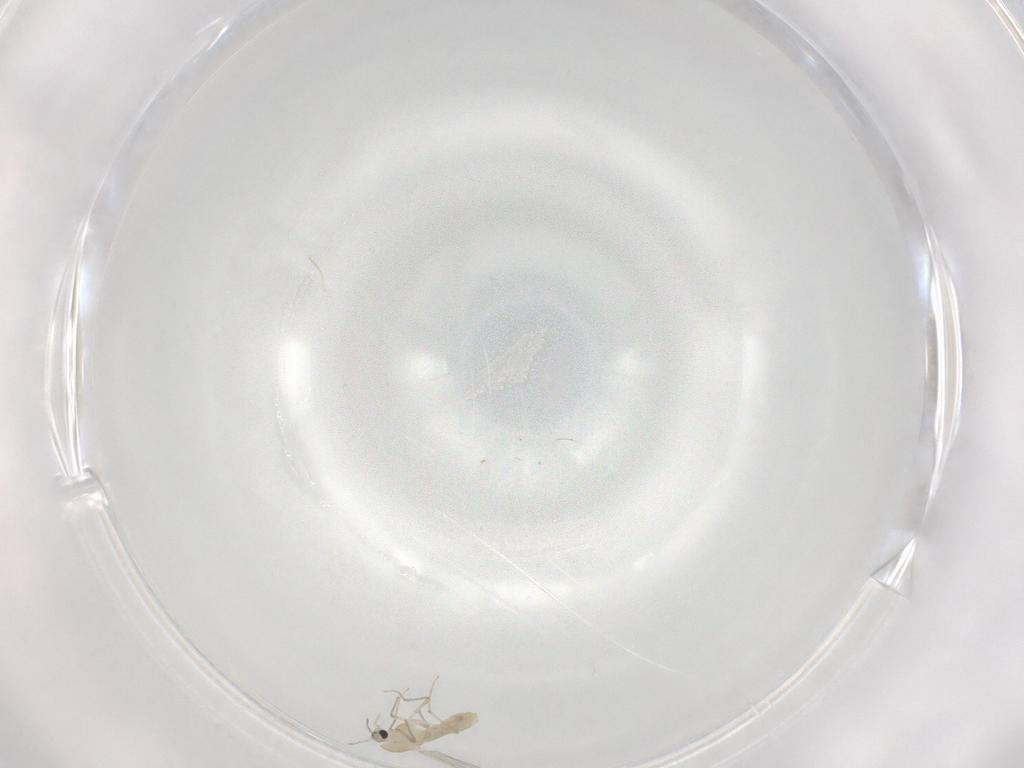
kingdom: Animalia
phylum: Arthropoda
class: Insecta
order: Diptera
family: Chironomidae
